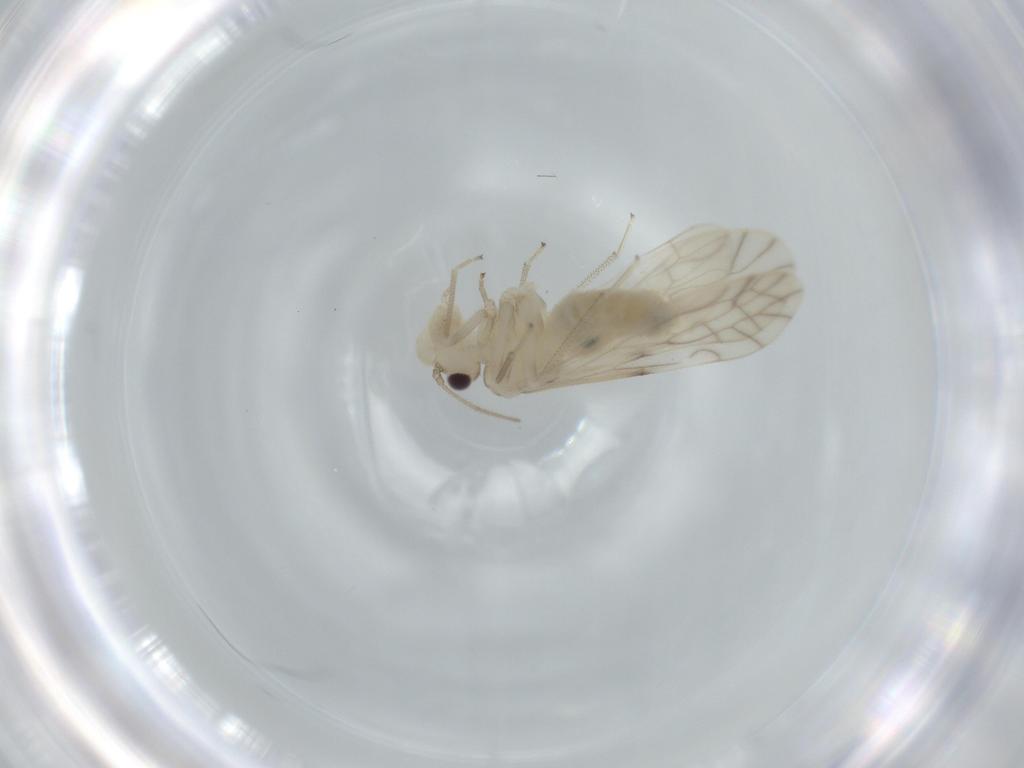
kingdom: Animalia
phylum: Arthropoda
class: Insecta
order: Psocodea
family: Caeciliusidae
